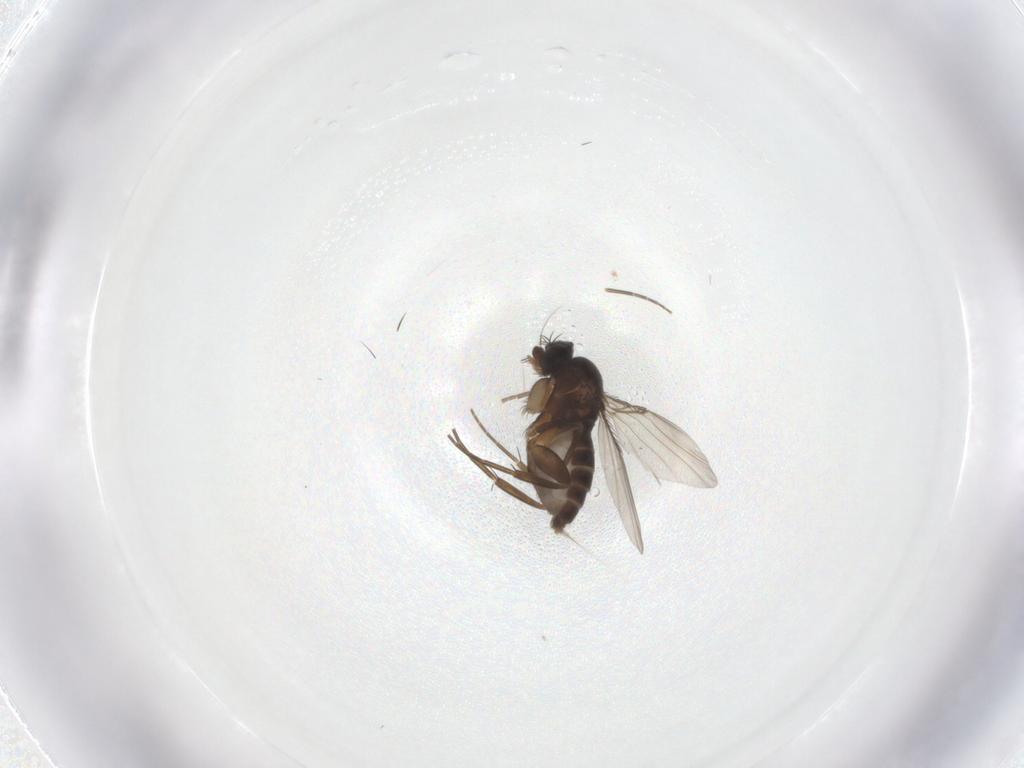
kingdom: Animalia
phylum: Arthropoda
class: Insecta
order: Diptera
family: Phoridae
